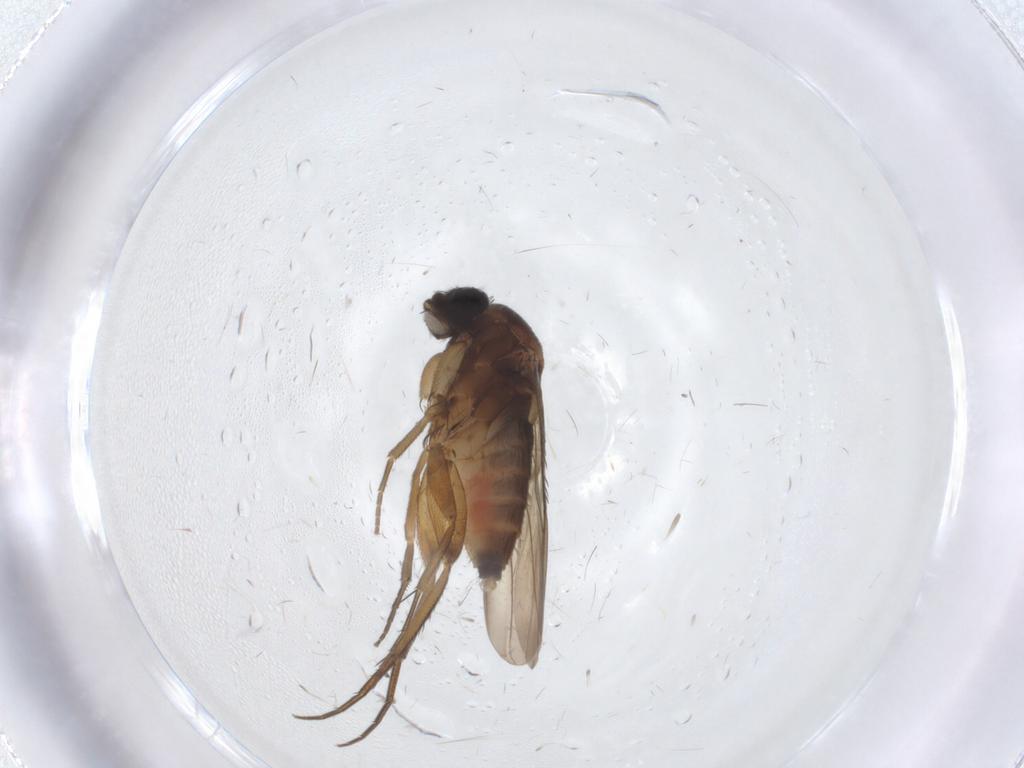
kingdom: Animalia
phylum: Arthropoda
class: Insecta
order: Diptera
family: Phoridae
